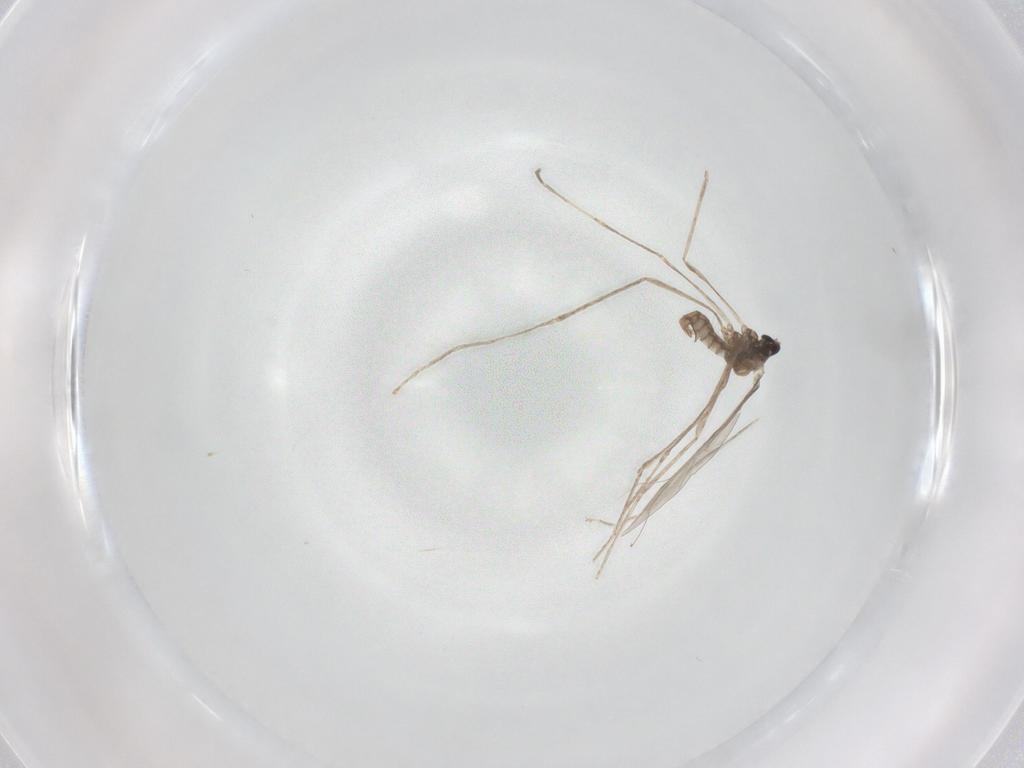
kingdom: Animalia
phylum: Arthropoda
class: Insecta
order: Diptera
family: Cecidomyiidae
